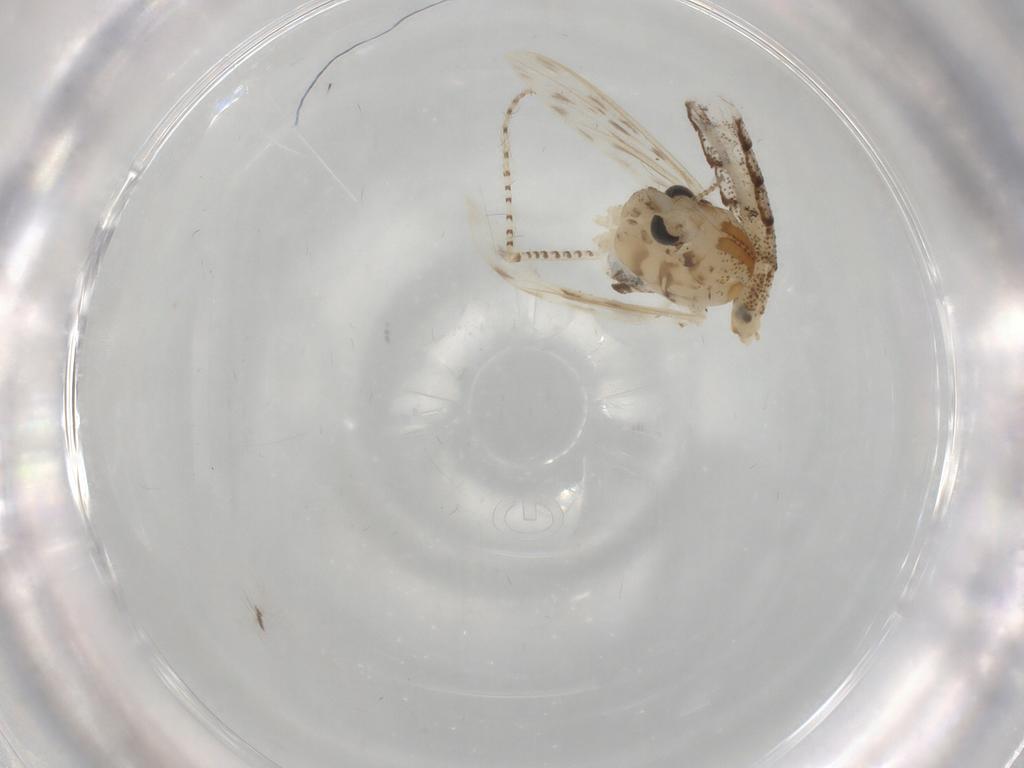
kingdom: Animalia
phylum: Arthropoda
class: Insecta
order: Diptera
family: Chaoboridae
